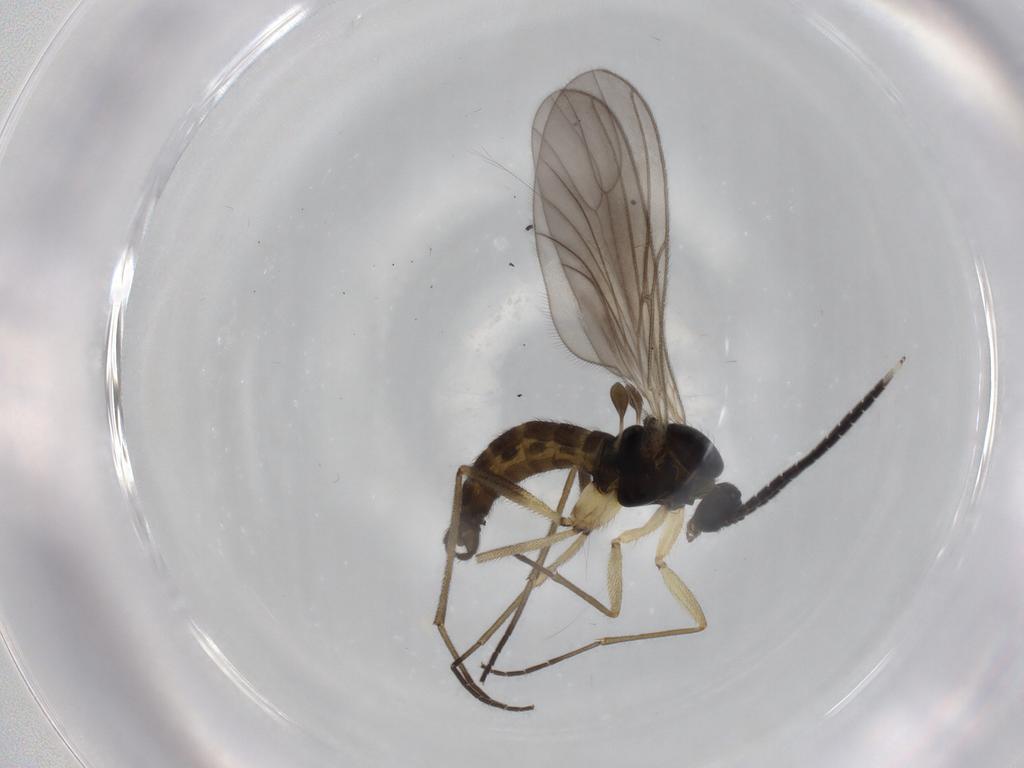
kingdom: Animalia
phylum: Arthropoda
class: Insecta
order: Diptera
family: Sciaridae
